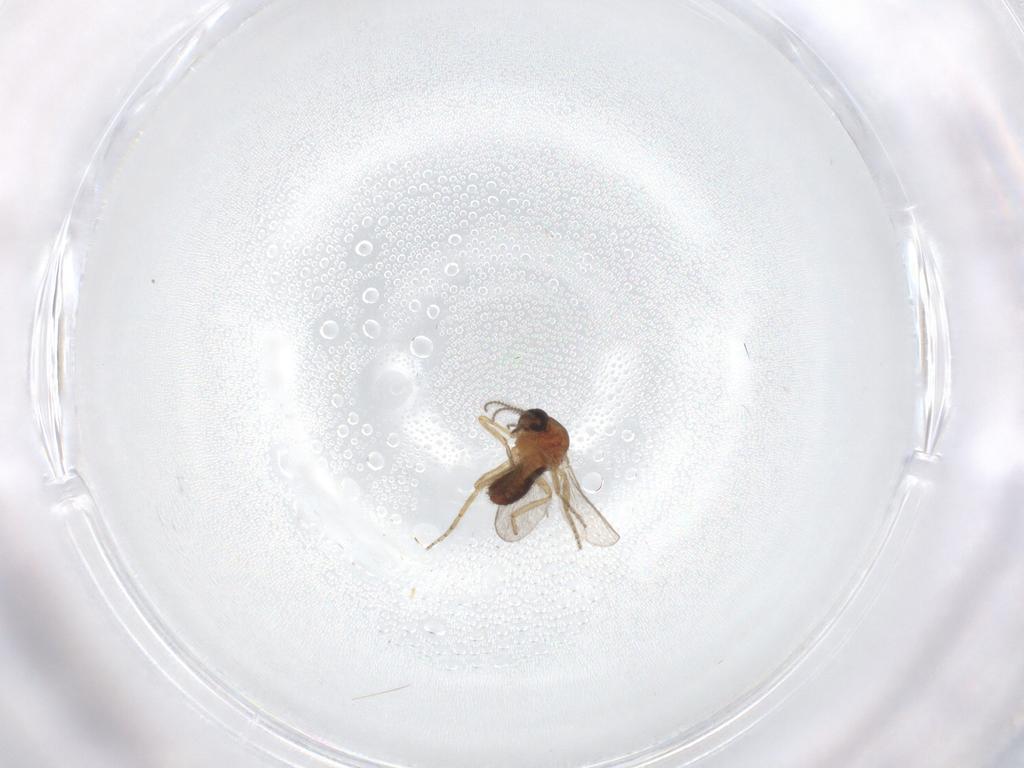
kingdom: Animalia
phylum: Arthropoda
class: Insecta
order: Diptera
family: Ceratopogonidae
